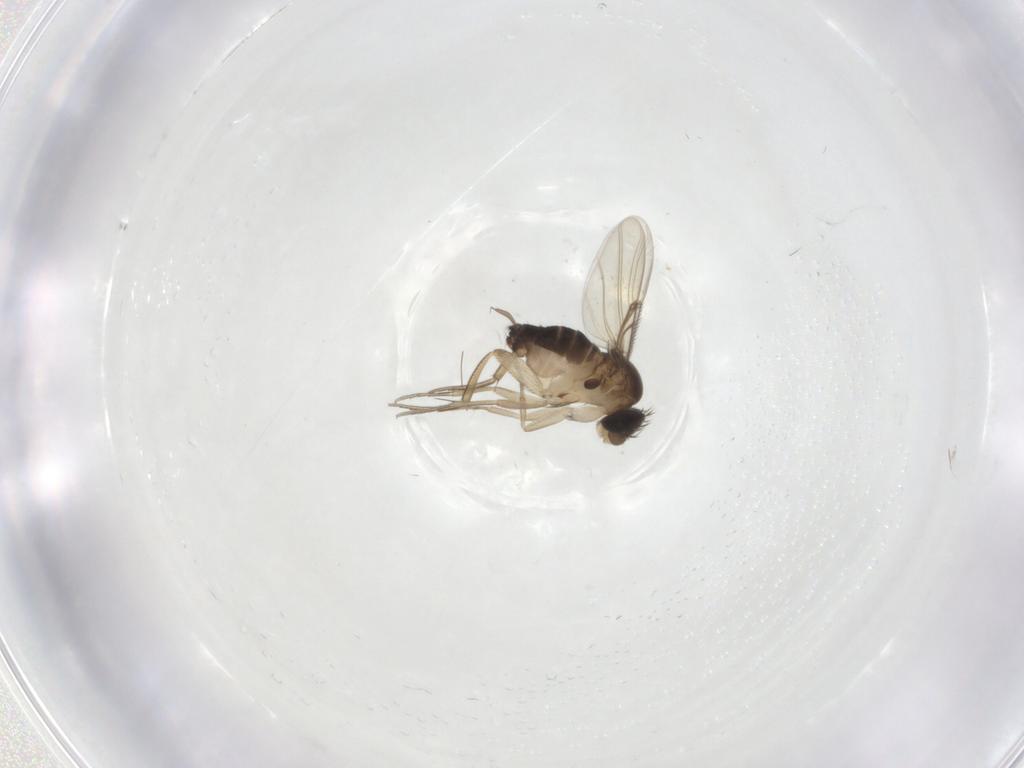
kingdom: Animalia
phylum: Arthropoda
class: Insecta
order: Diptera
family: Phoridae
